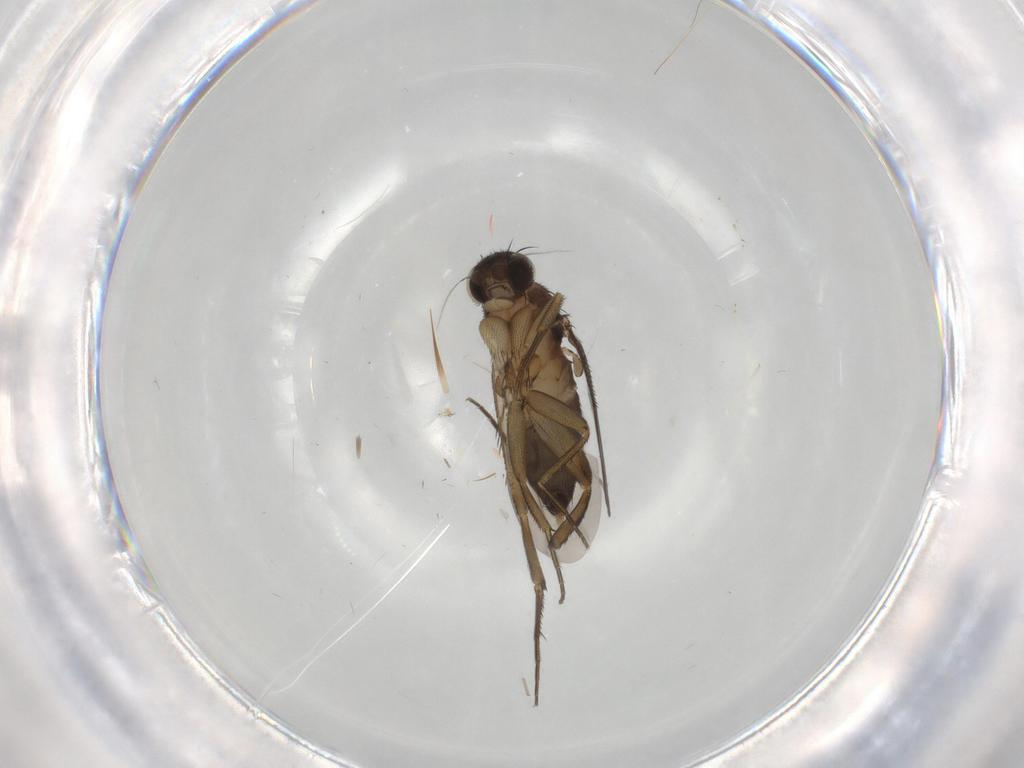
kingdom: Animalia
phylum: Arthropoda
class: Insecta
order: Diptera
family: Phoridae
